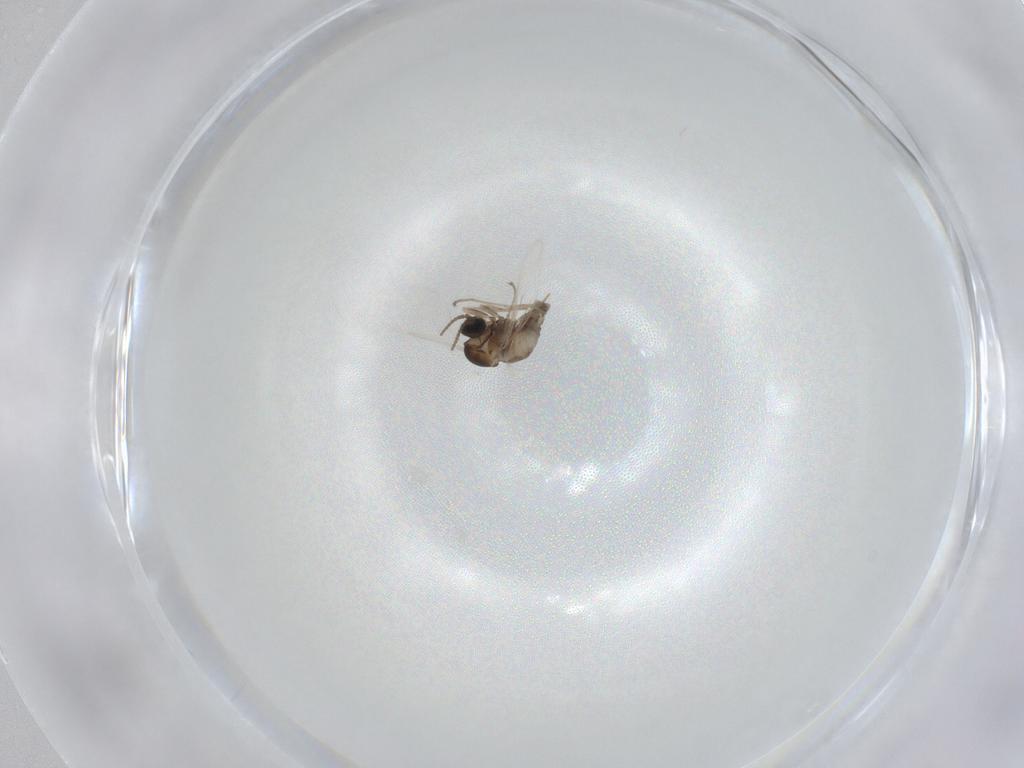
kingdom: Animalia
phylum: Arthropoda
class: Insecta
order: Diptera
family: Cecidomyiidae
